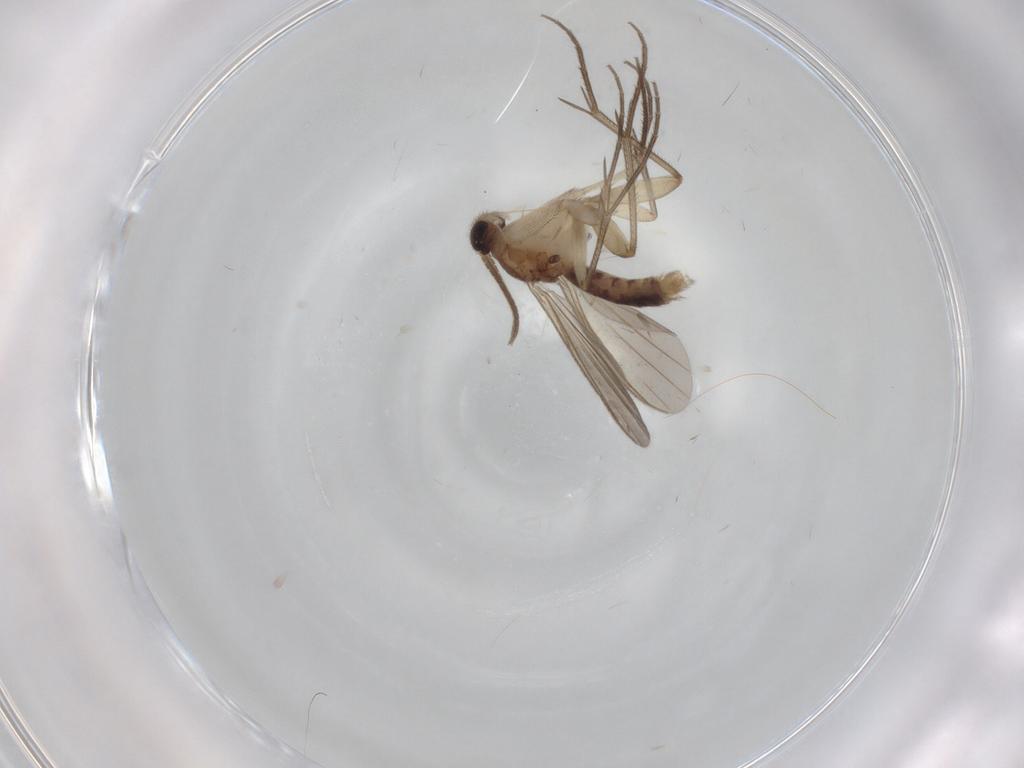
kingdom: Animalia
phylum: Arthropoda
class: Insecta
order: Diptera
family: Mycetophilidae
